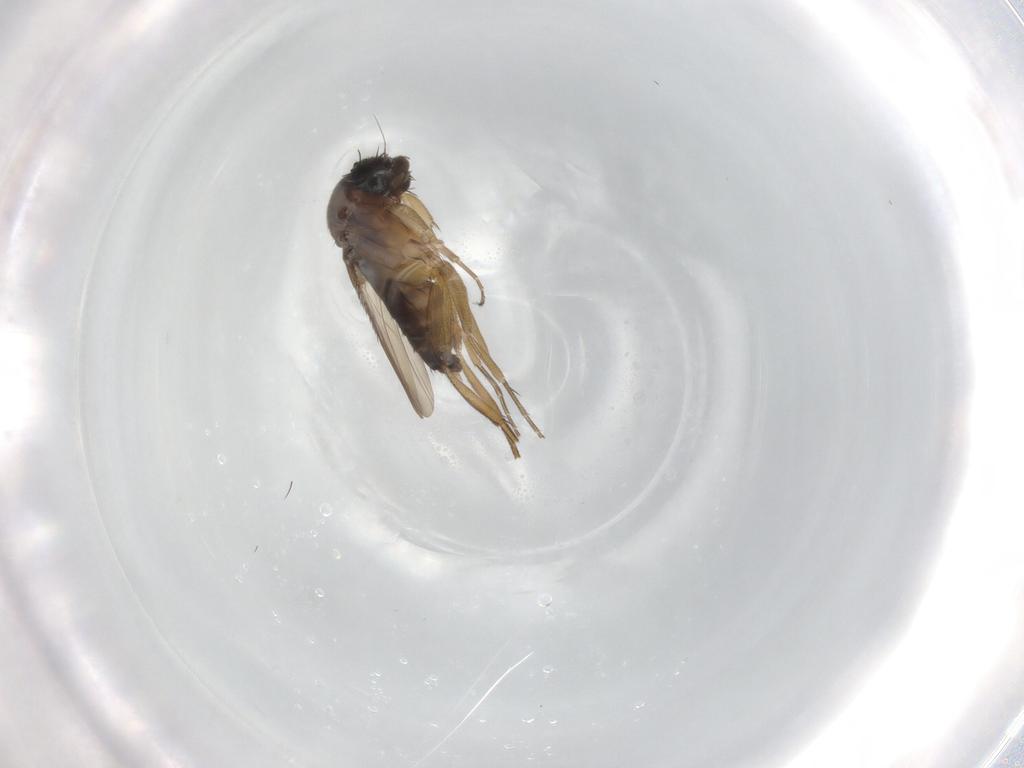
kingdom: Animalia
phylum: Arthropoda
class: Insecta
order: Diptera
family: Phoridae
